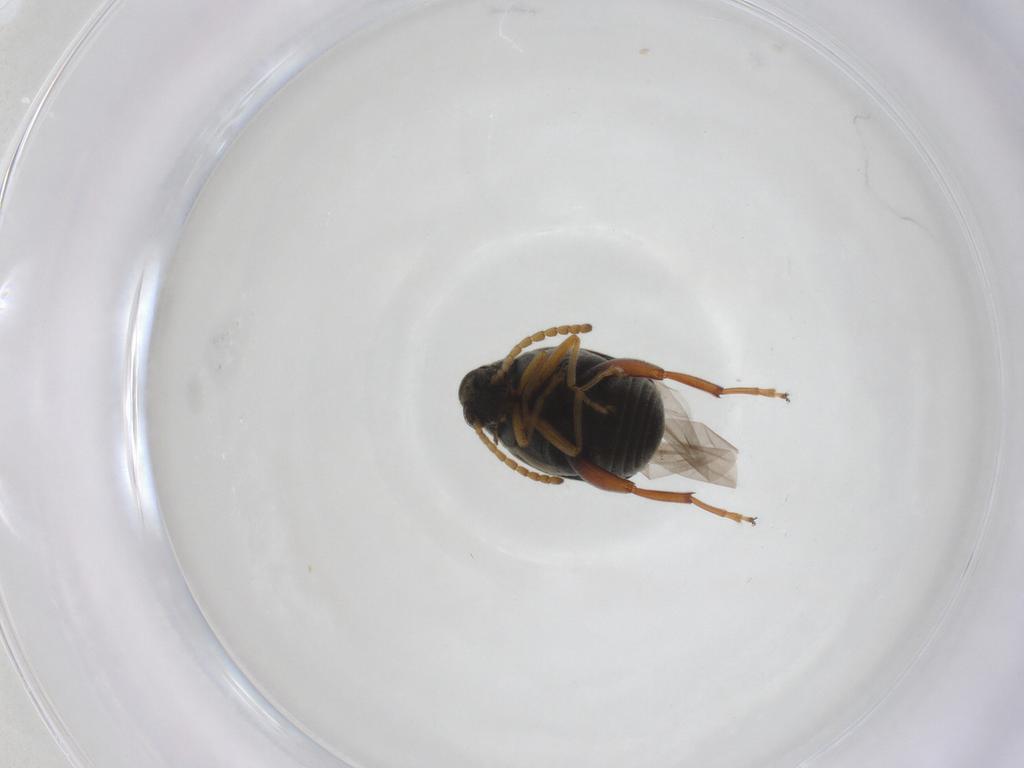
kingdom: Animalia
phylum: Arthropoda
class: Insecta
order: Coleoptera
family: Chrysomelidae
